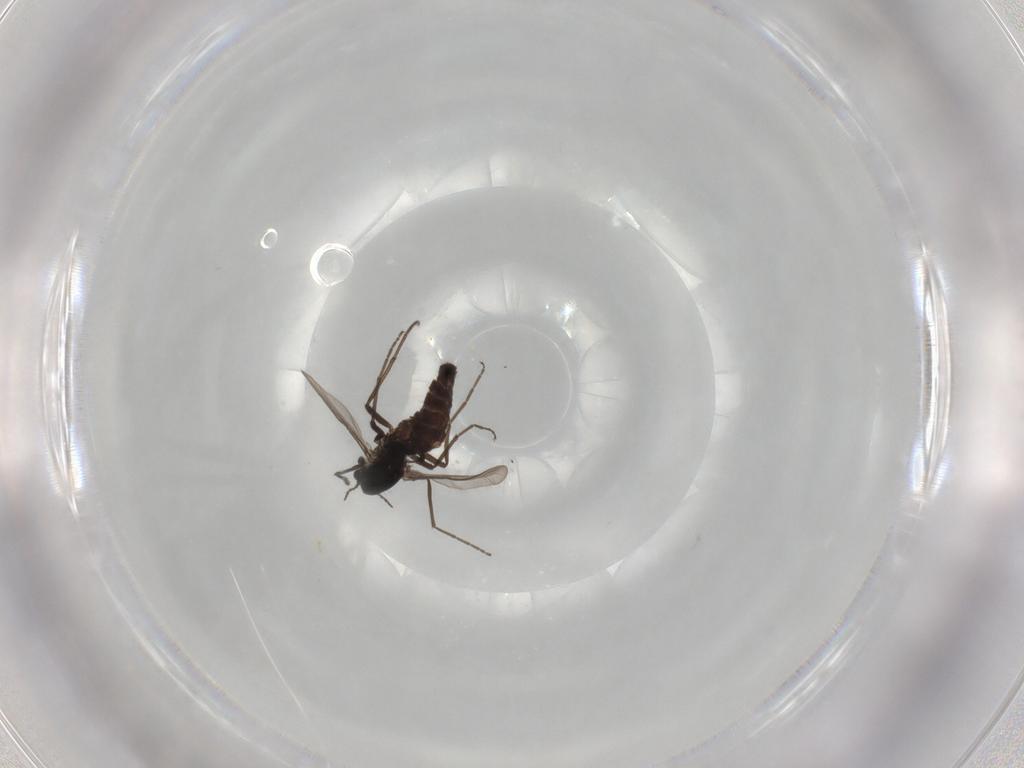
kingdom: Animalia
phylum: Arthropoda
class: Insecta
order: Diptera
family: Chironomidae
